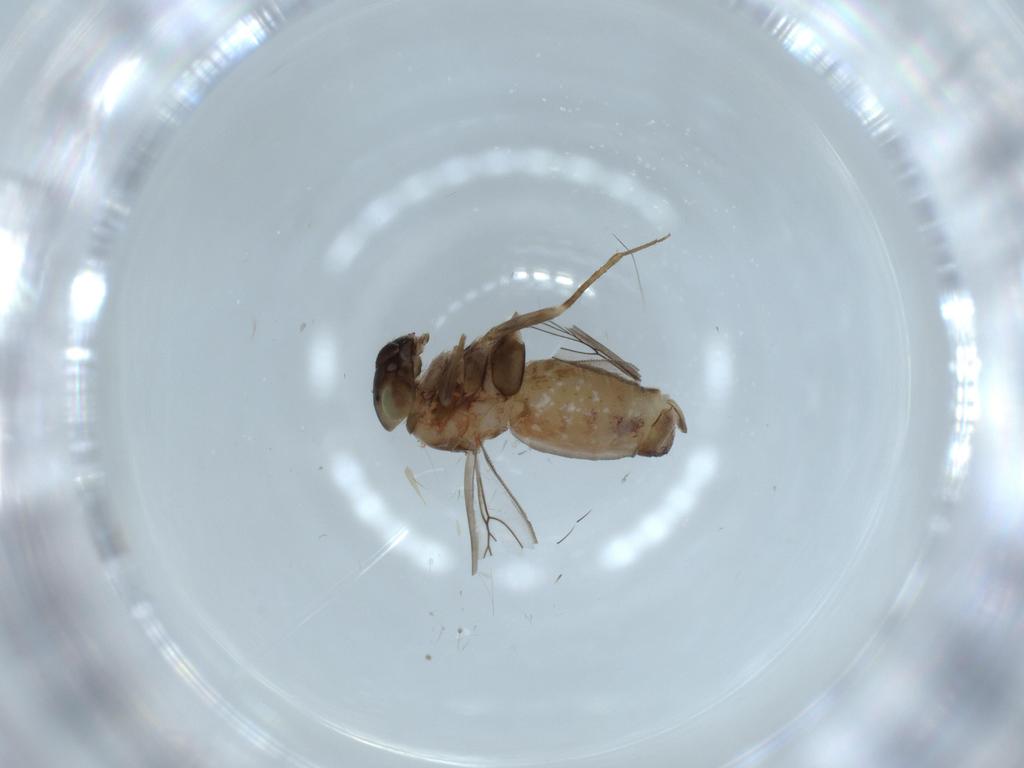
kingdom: Animalia
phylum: Arthropoda
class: Insecta
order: Psocodea
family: Lepidopsocidae
